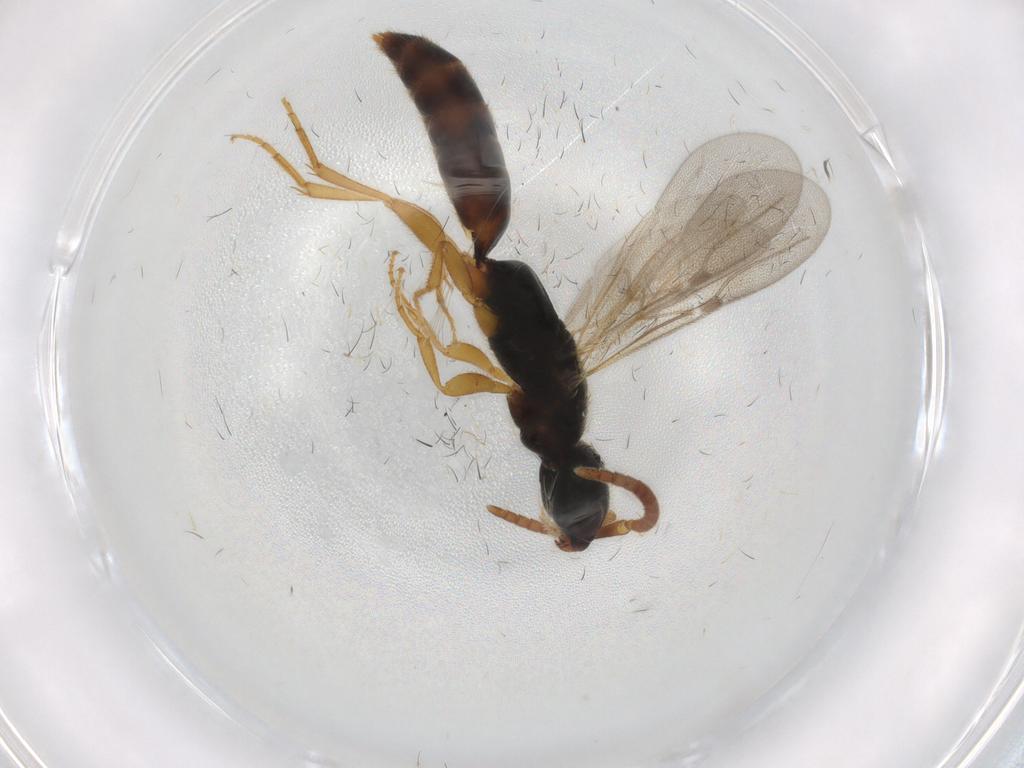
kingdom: Animalia
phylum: Arthropoda
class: Insecta
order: Hymenoptera
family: Bethylidae
